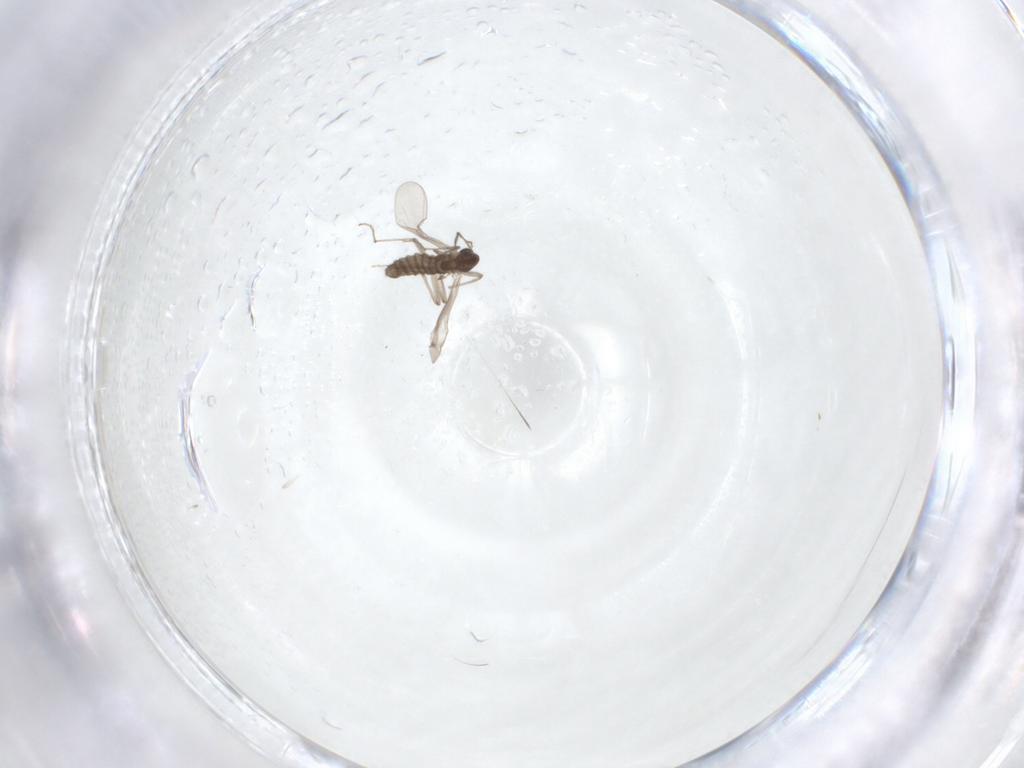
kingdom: Animalia
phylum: Arthropoda
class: Insecta
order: Diptera
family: Chironomidae
